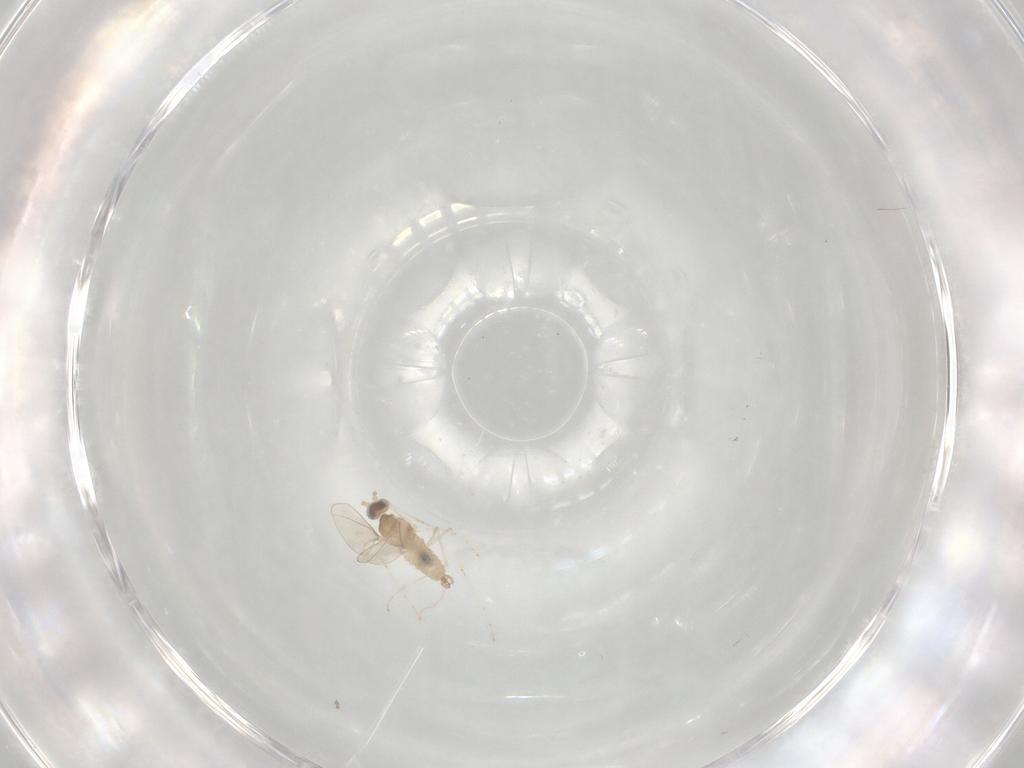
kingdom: Animalia
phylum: Arthropoda
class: Insecta
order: Diptera
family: Cecidomyiidae
